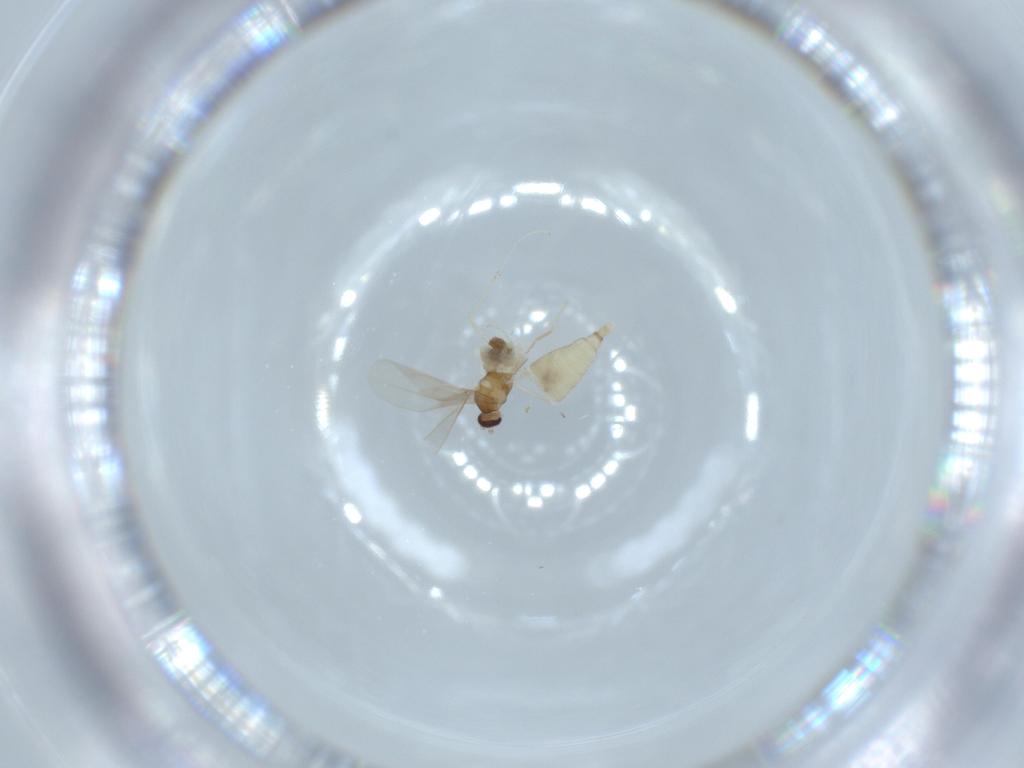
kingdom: Animalia
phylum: Arthropoda
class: Insecta
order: Diptera
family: Cecidomyiidae
